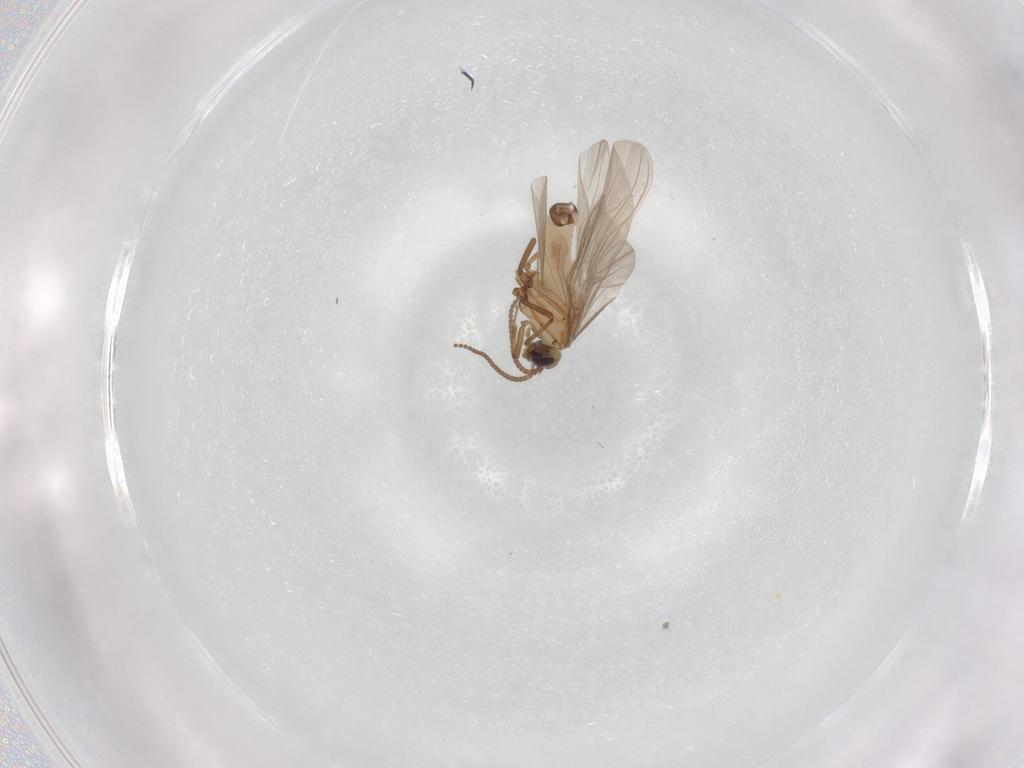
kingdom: Animalia
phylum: Arthropoda
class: Insecta
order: Neuroptera
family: Coniopterygidae
